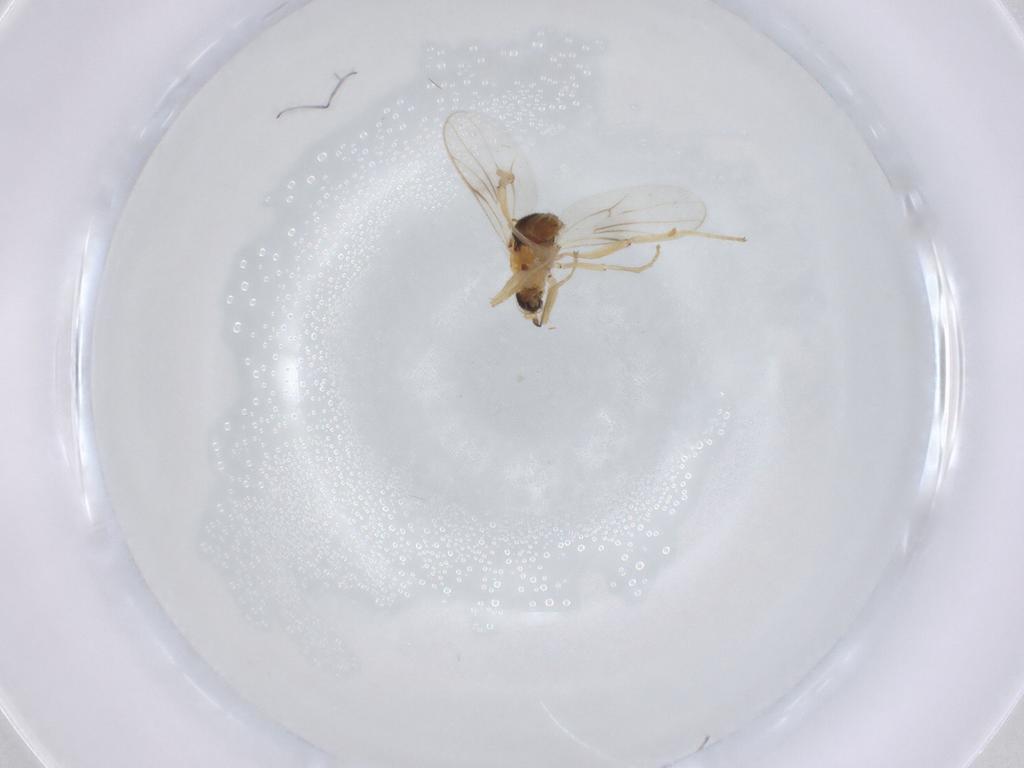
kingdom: Animalia
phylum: Arthropoda
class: Insecta
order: Diptera
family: Hybotidae
